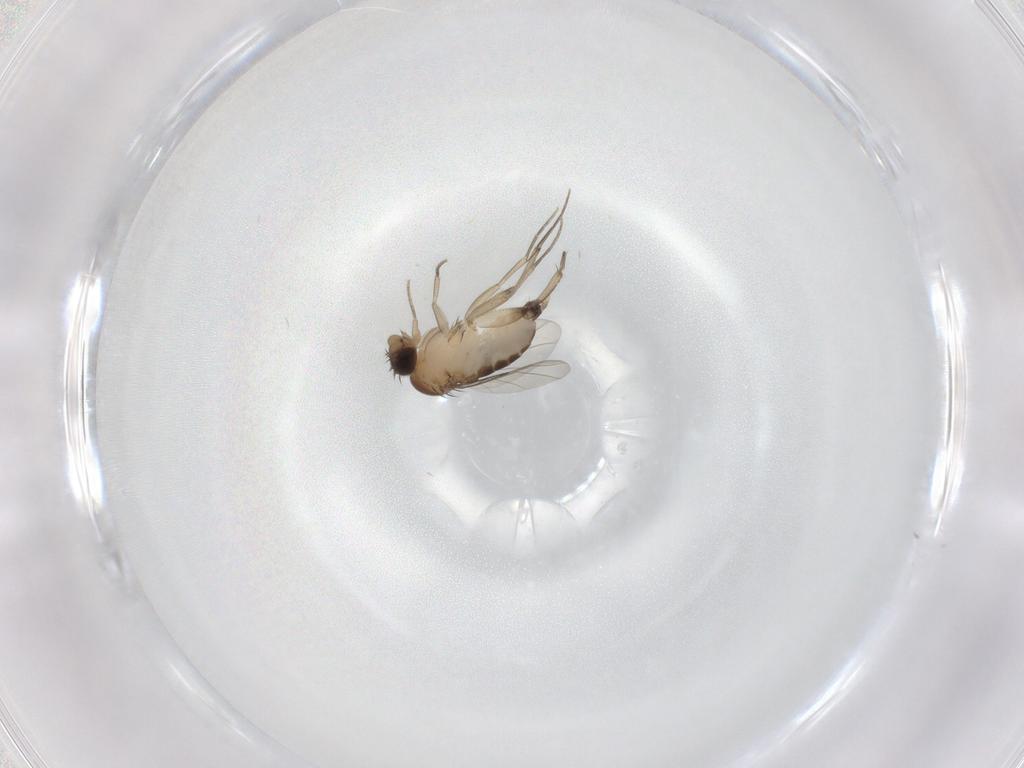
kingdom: Animalia
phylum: Arthropoda
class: Insecta
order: Diptera
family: Phoridae
